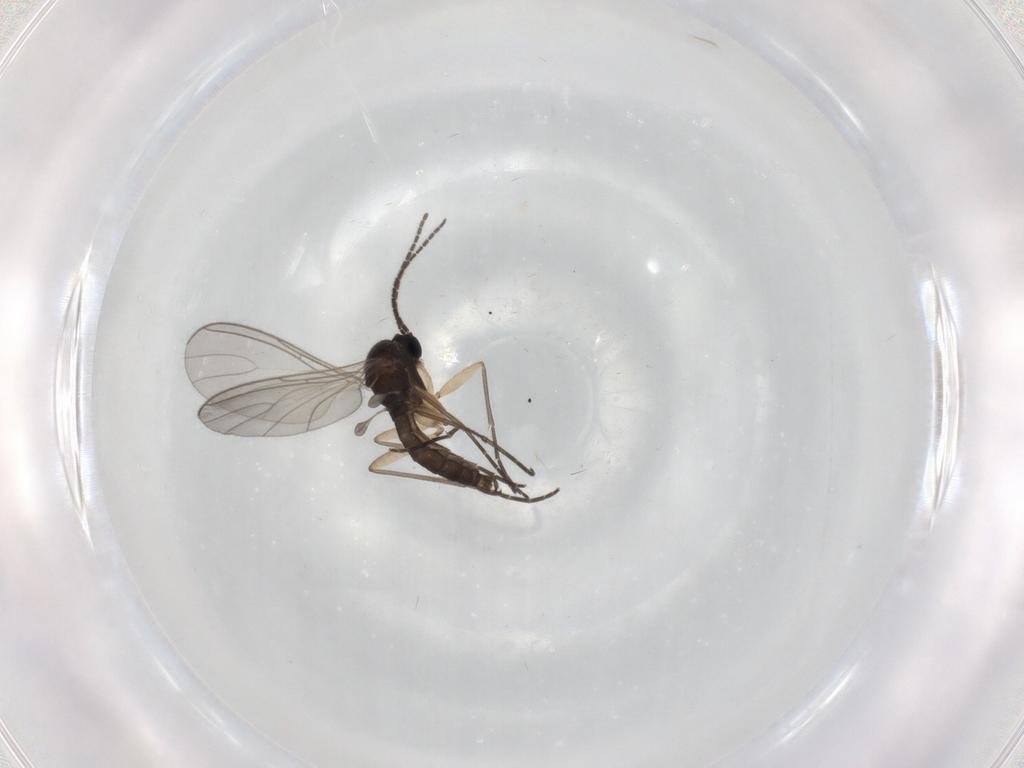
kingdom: Animalia
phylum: Arthropoda
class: Insecta
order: Diptera
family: Sciaridae
